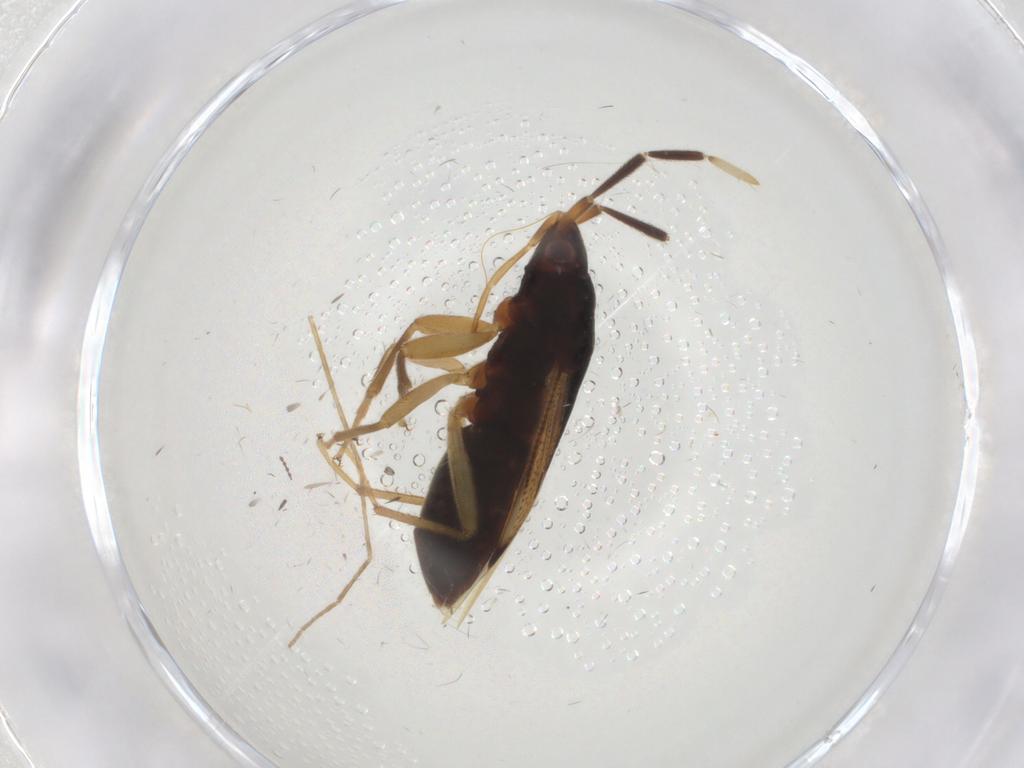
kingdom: Animalia
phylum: Arthropoda
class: Insecta
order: Hemiptera
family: Rhyparochromidae
